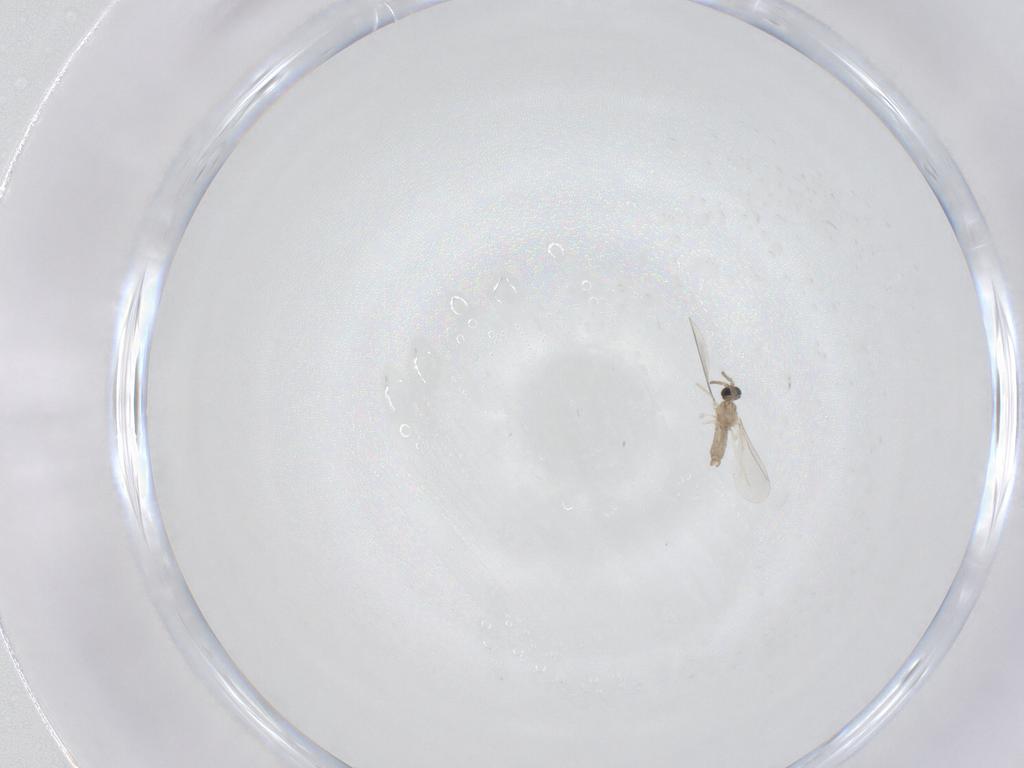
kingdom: Animalia
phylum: Arthropoda
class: Insecta
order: Diptera
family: Cecidomyiidae
